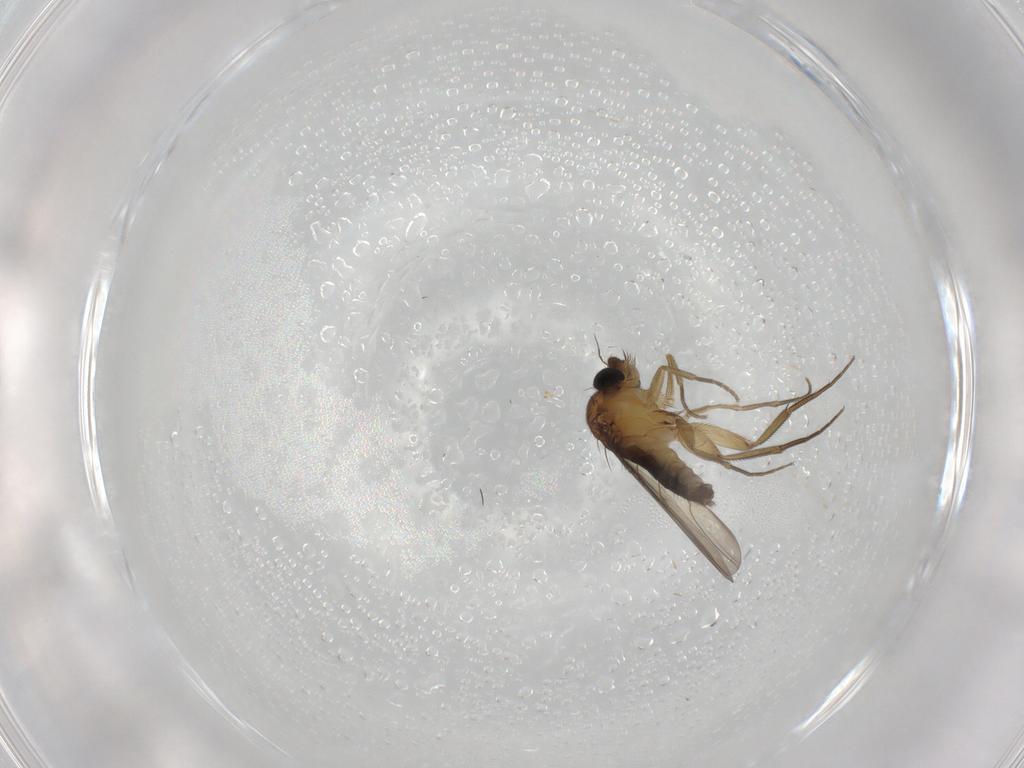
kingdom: Animalia
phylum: Arthropoda
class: Insecta
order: Diptera
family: Phoridae
